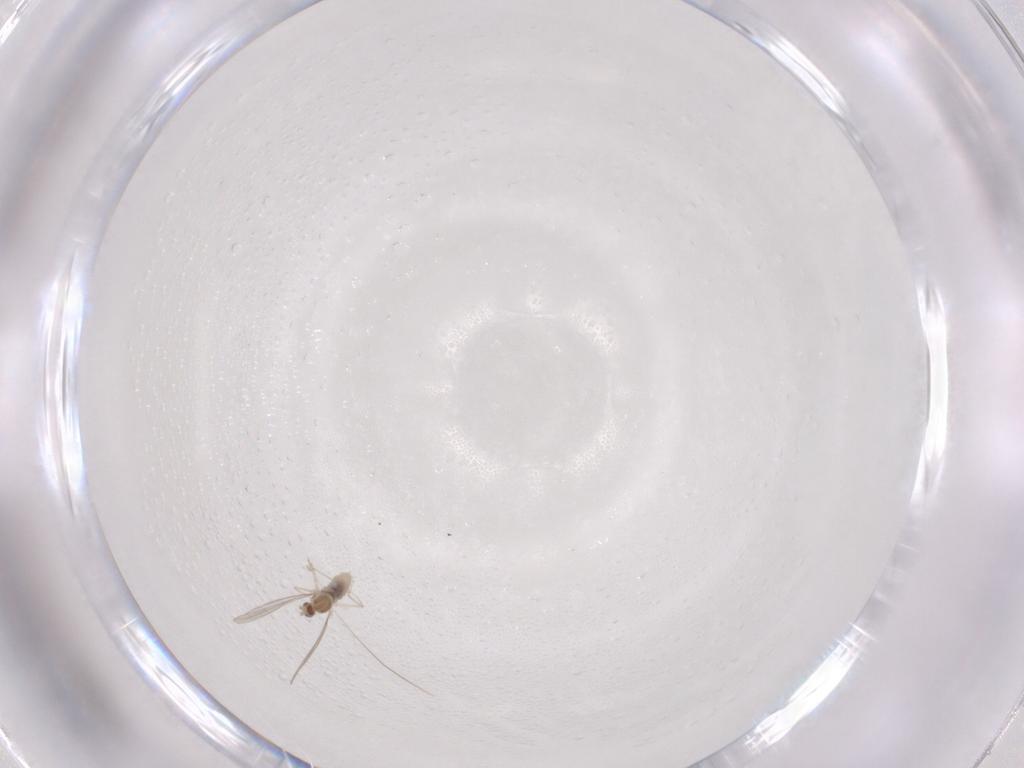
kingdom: Animalia
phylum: Arthropoda
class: Insecta
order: Diptera
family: Cecidomyiidae
